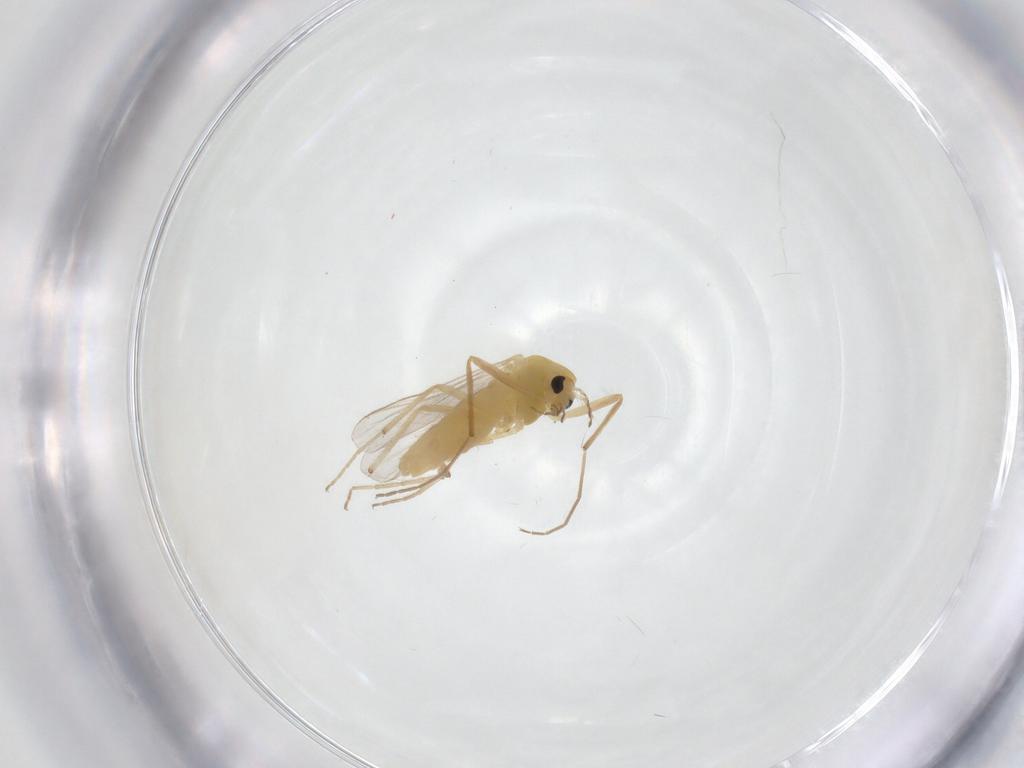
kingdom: Animalia
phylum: Arthropoda
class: Insecta
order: Diptera
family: Chironomidae
